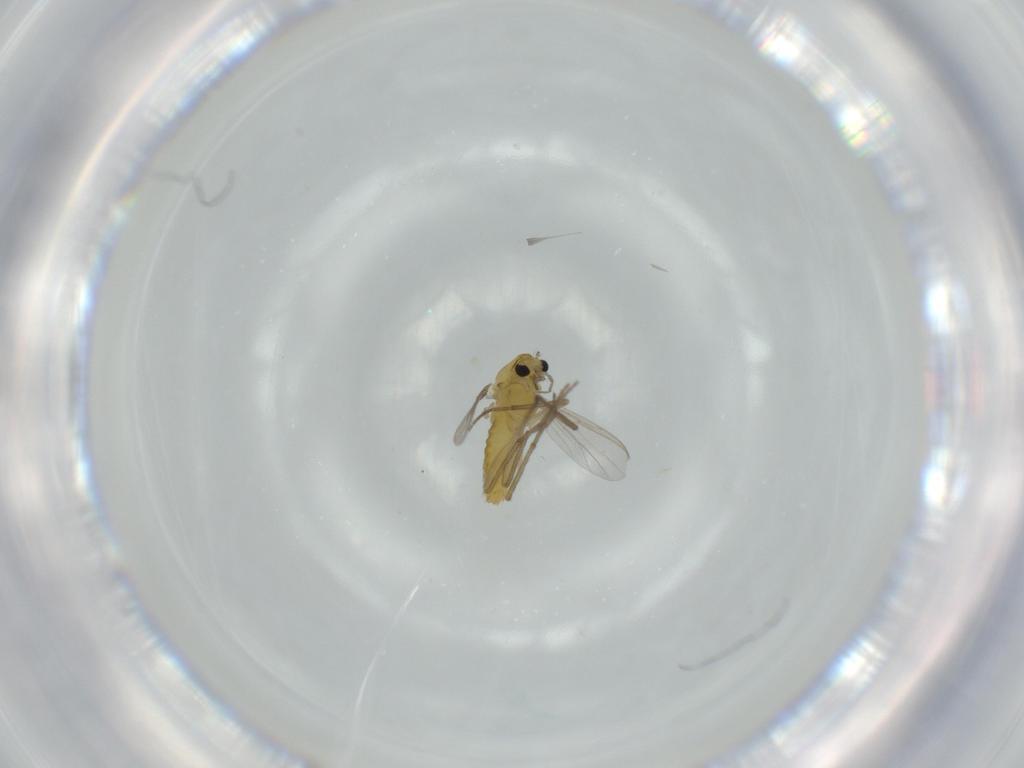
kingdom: Animalia
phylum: Arthropoda
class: Insecta
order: Diptera
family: Chironomidae
